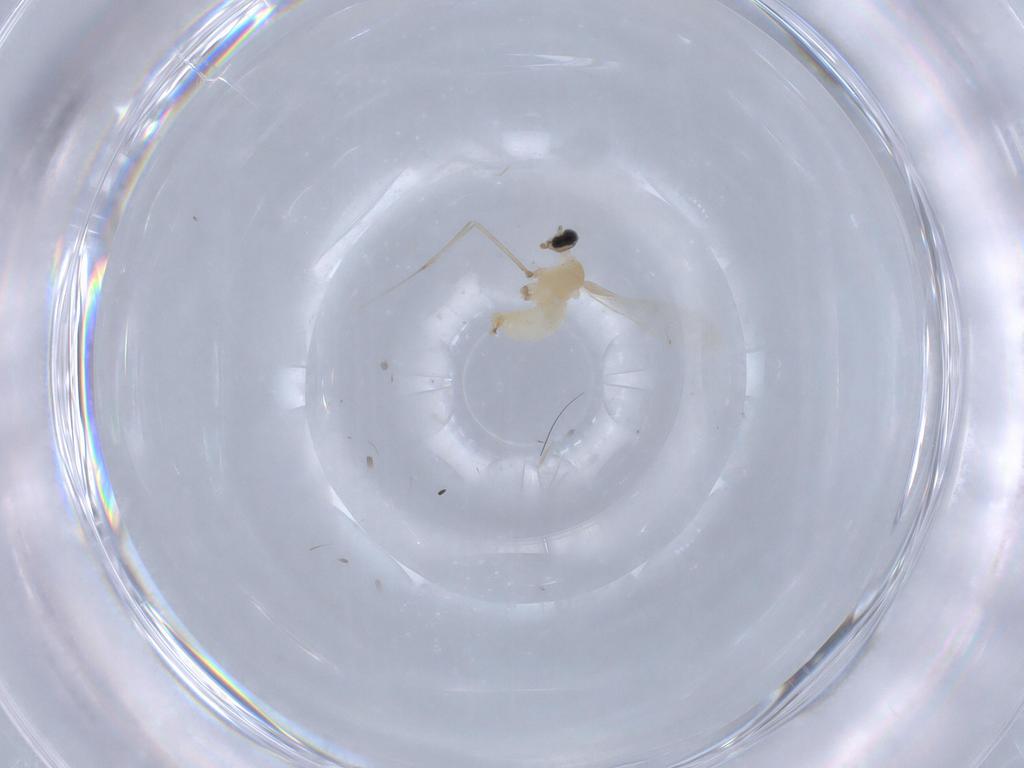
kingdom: Animalia
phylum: Arthropoda
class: Insecta
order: Diptera
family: Cecidomyiidae
